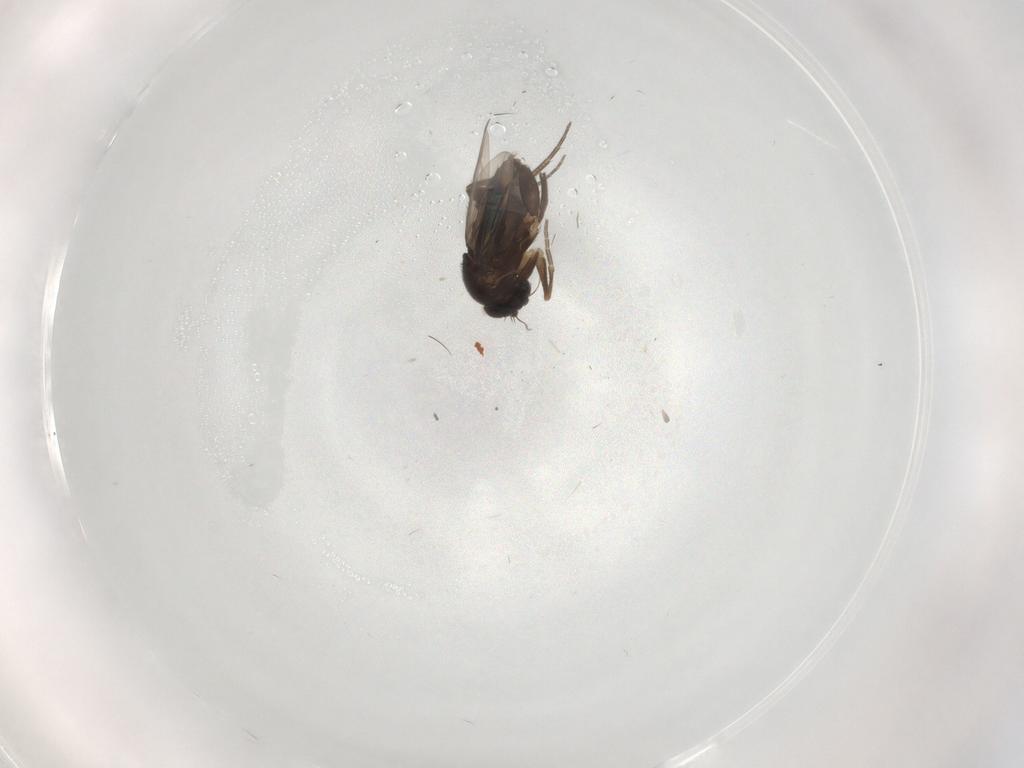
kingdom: Animalia
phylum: Arthropoda
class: Insecta
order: Diptera
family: Phoridae
